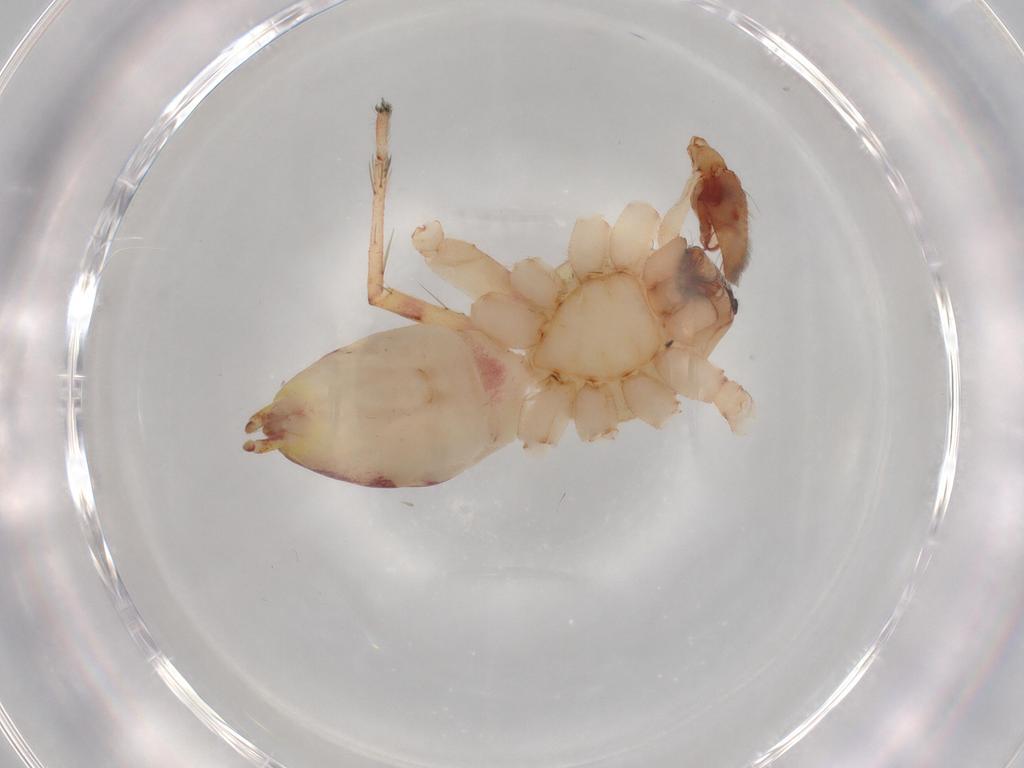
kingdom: Animalia
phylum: Arthropoda
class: Arachnida
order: Araneae
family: Anyphaenidae
